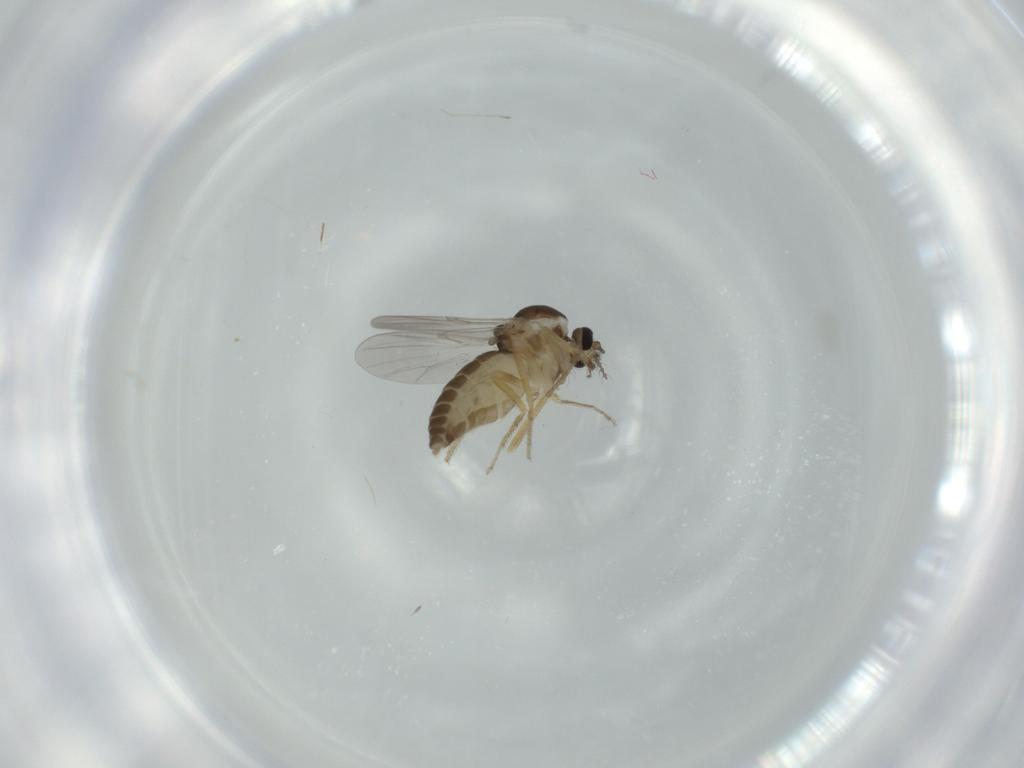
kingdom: Animalia
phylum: Arthropoda
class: Insecta
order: Diptera
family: Ceratopogonidae
